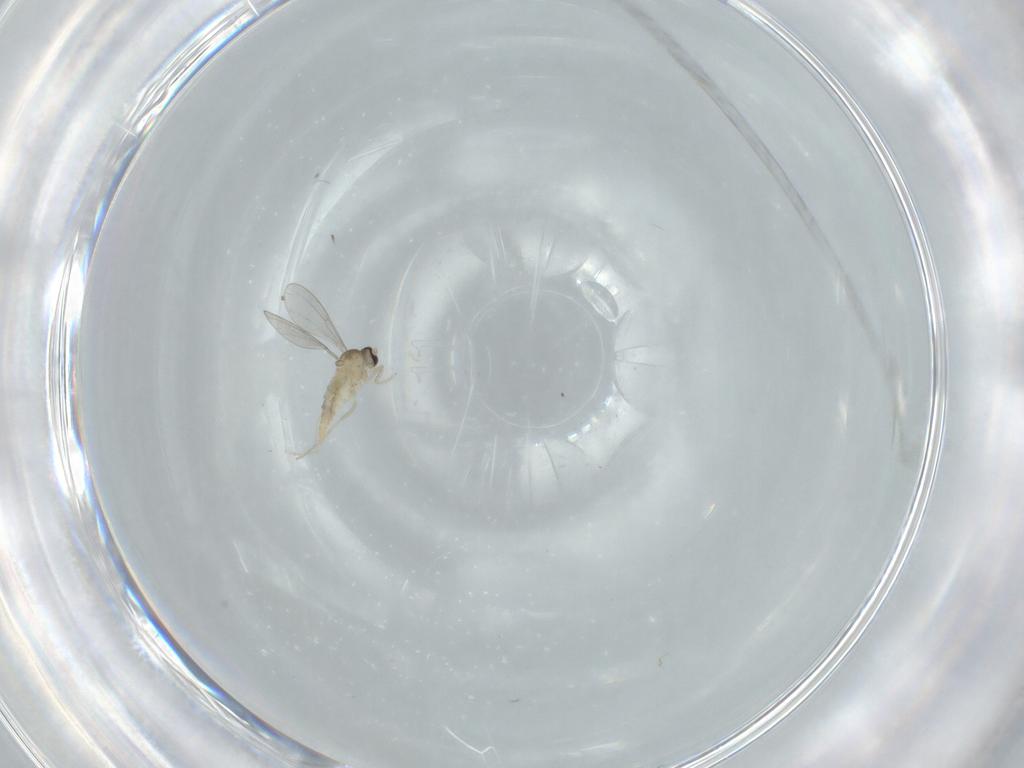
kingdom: Animalia
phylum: Arthropoda
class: Insecta
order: Diptera
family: Cecidomyiidae
